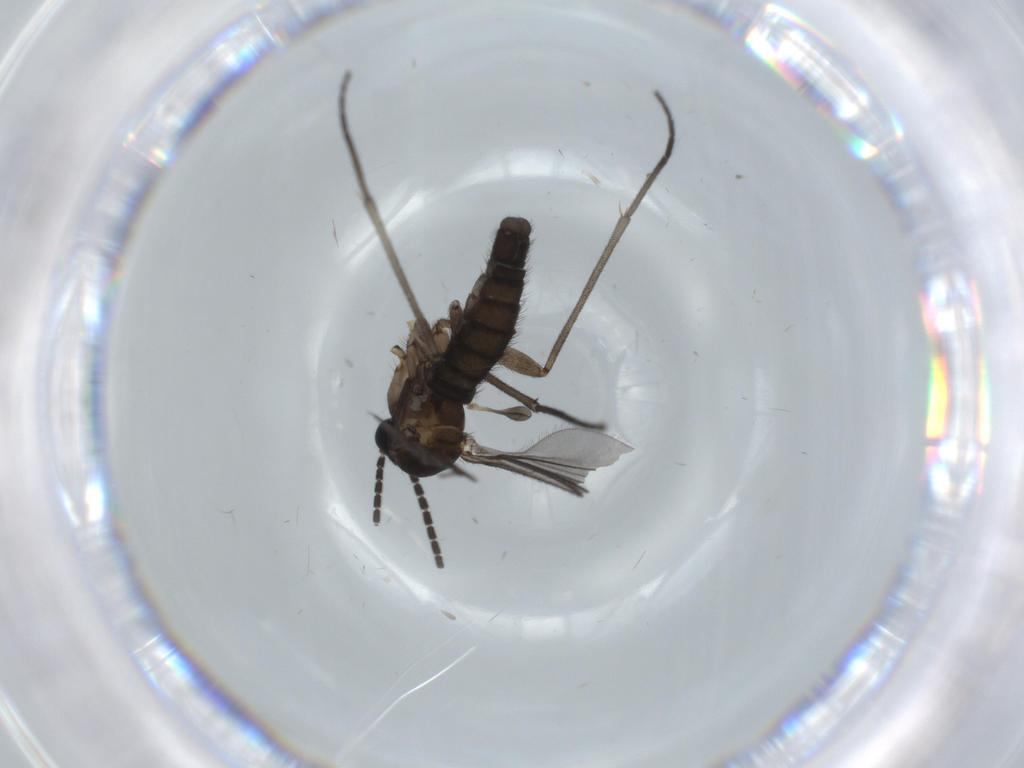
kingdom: Animalia
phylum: Arthropoda
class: Insecta
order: Diptera
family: Sciaridae
